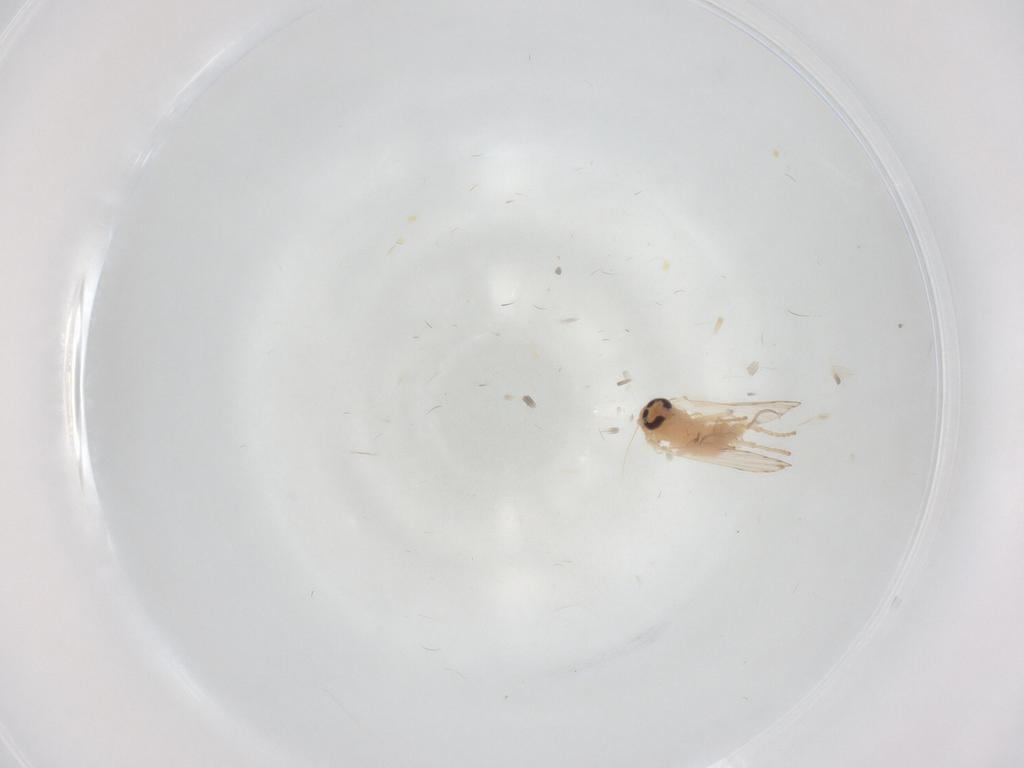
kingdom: Animalia
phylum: Arthropoda
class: Insecta
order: Diptera
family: Psychodidae
